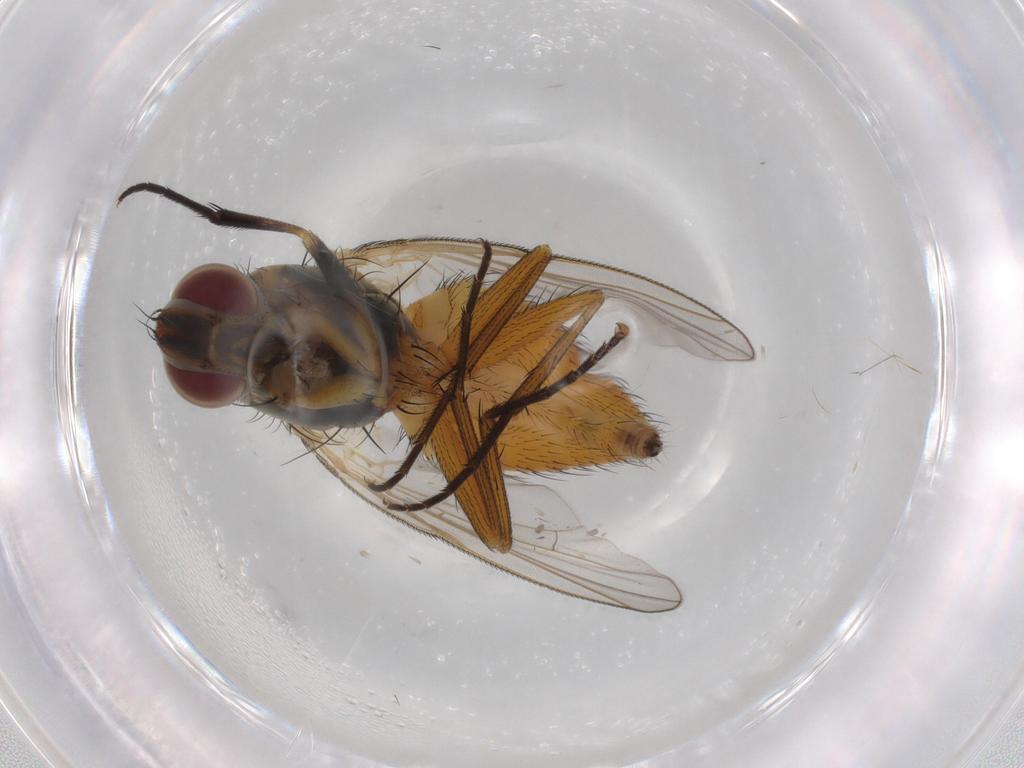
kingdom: Animalia
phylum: Arthropoda
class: Insecta
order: Diptera
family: Muscidae
